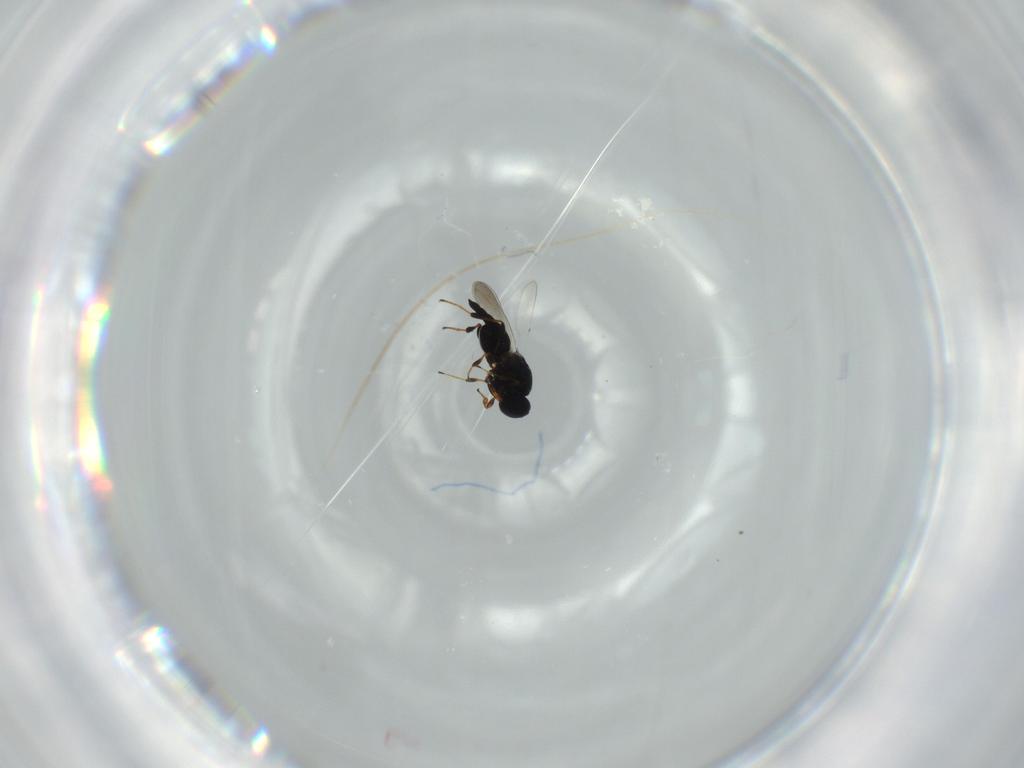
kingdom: Animalia
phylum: Arthropoda
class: Insecta
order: Hymenoptera
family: Platygastridae
